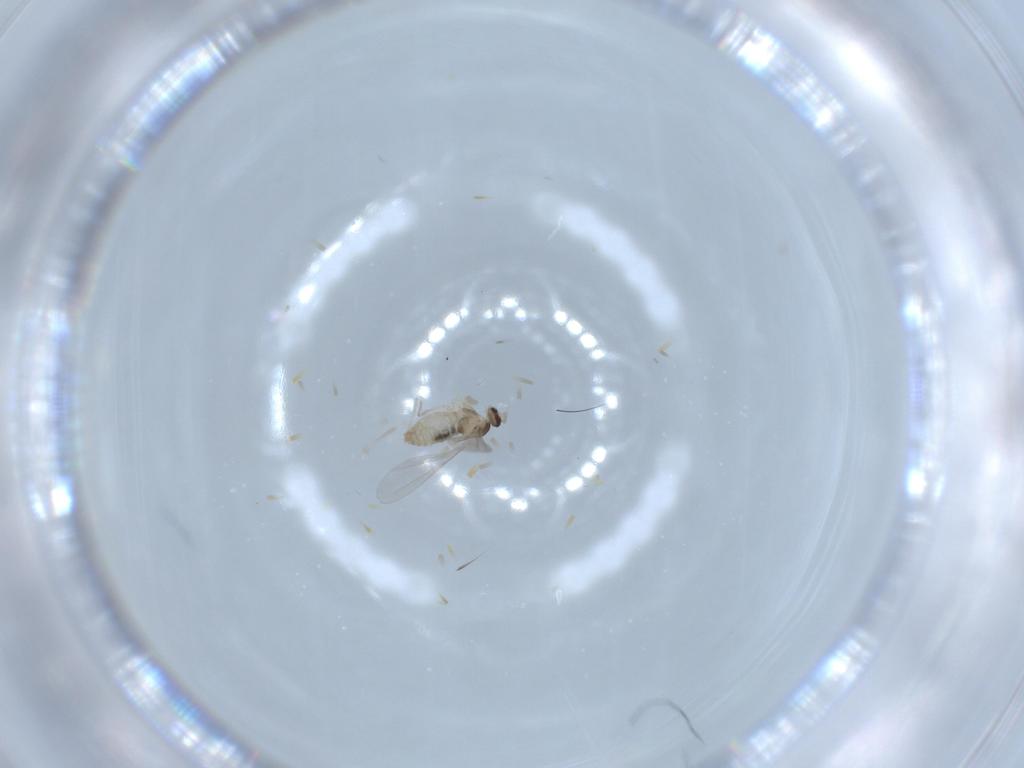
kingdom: Animalia
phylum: Arthropoda
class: Insecta
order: Diptera
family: Cecidomyiidae
